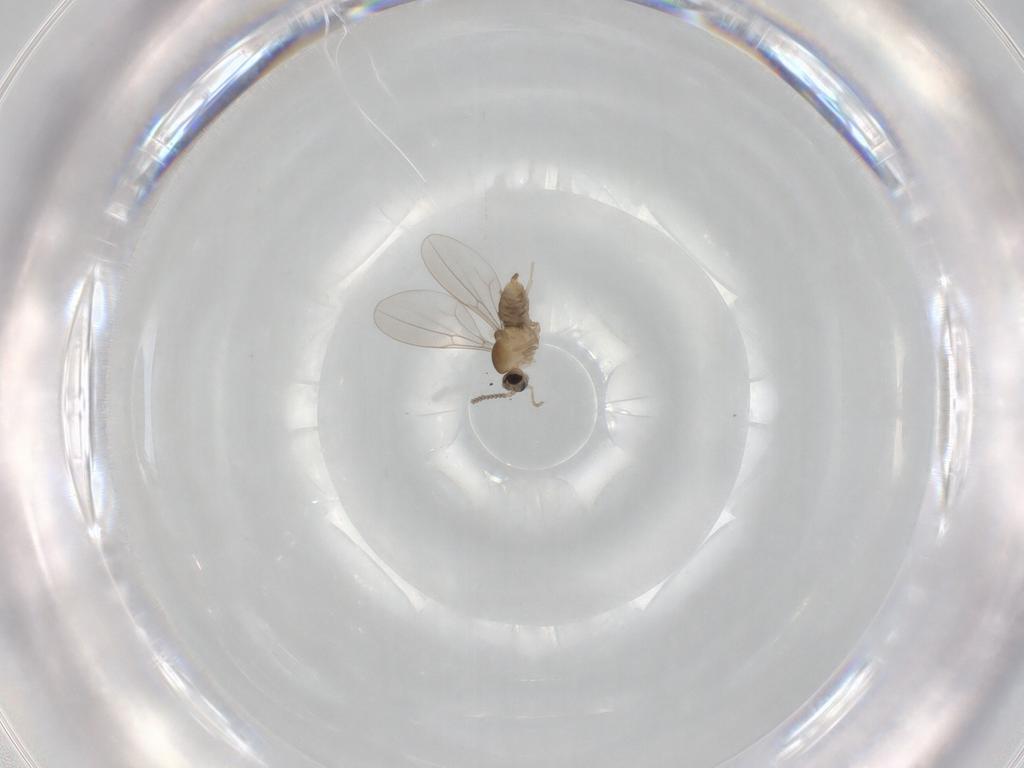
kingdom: Animalia
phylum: Arthropoda
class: Insecta
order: Diptera
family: Cecidomyiidae
